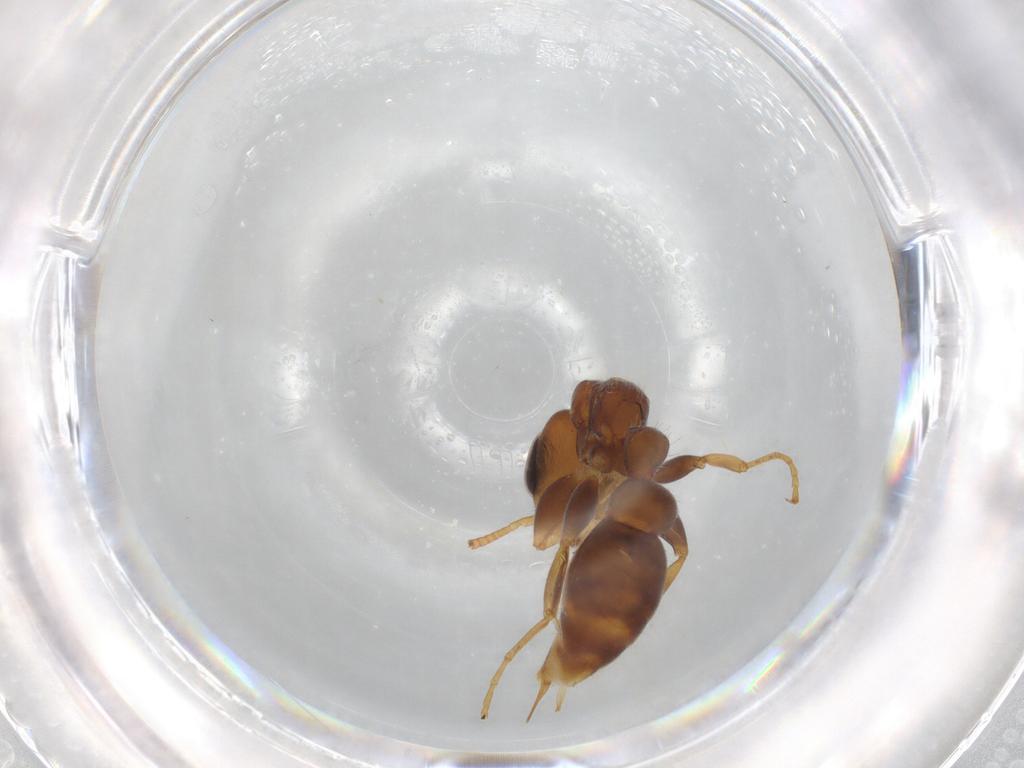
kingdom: Animalia
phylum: Arthropoda
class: Insecta
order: Hymenoptera
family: Formicidae
